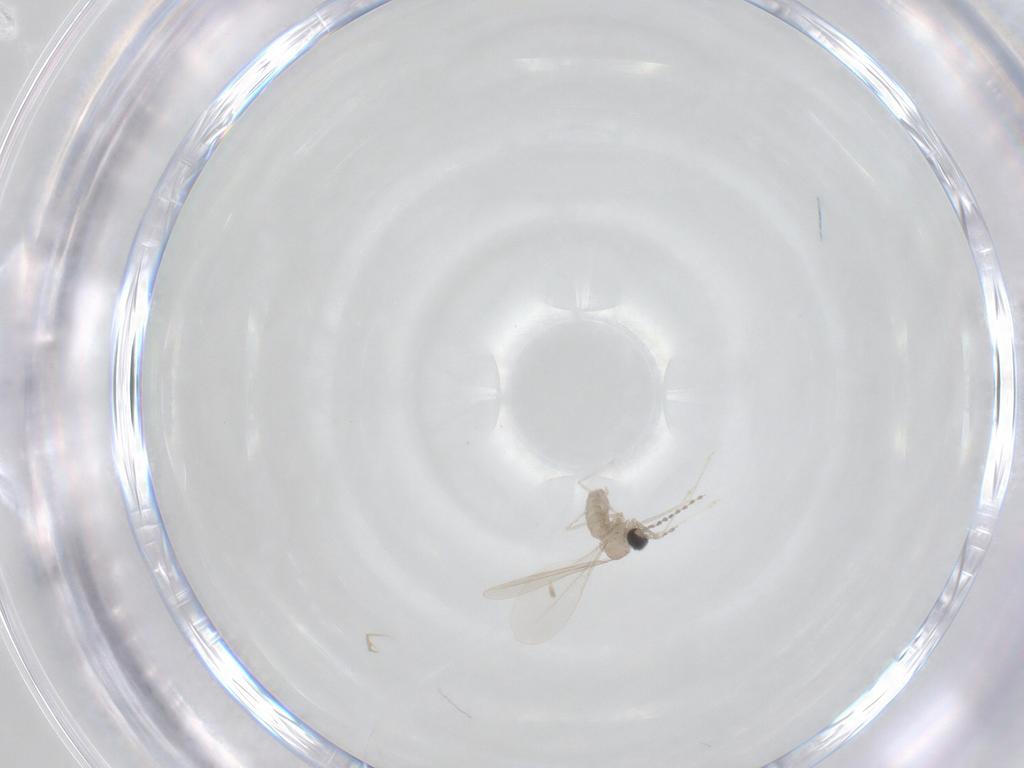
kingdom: Animalia
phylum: Arthropoda
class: Insecta
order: Diptera
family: Cecidomyiidae
